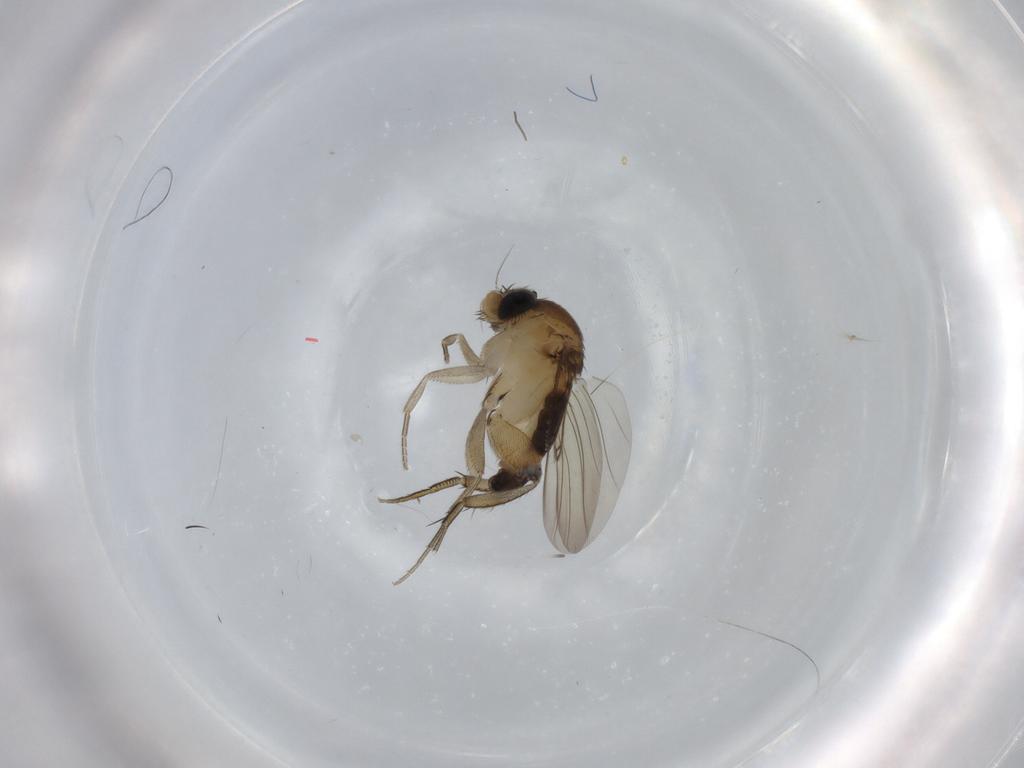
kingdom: Animalia
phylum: Arthropoda
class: Insecta
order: Diptera
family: Phoridae
